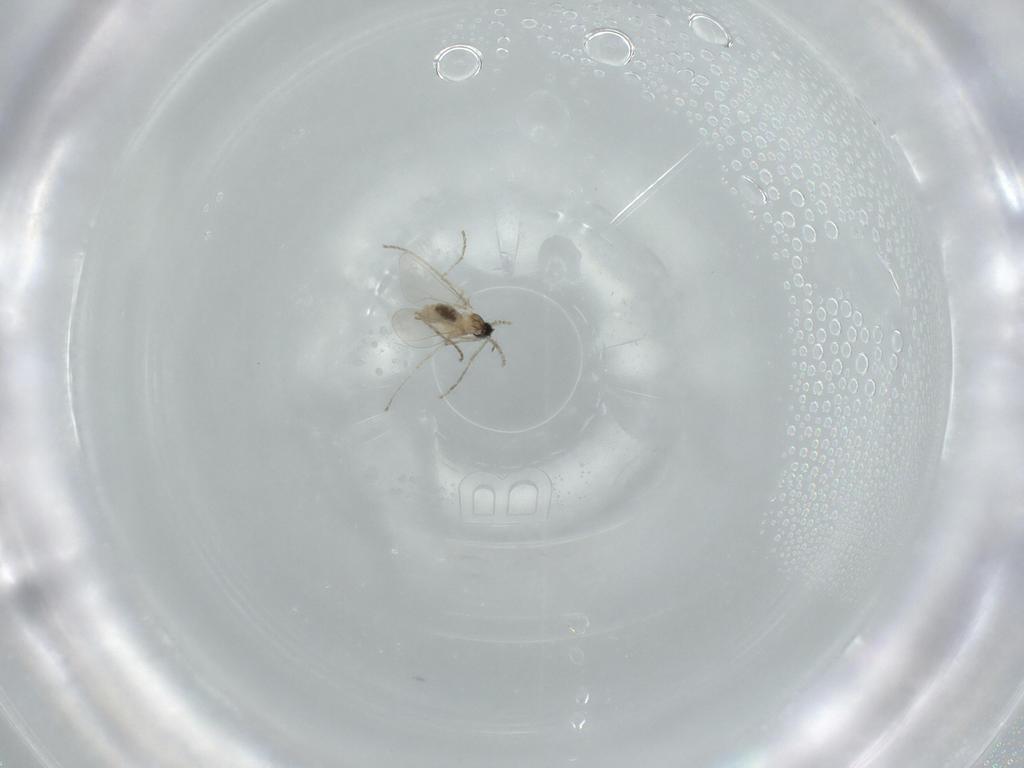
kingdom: Animalia
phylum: Arthropoda
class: Insecta
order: Diptera
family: Cecidomyiidae
